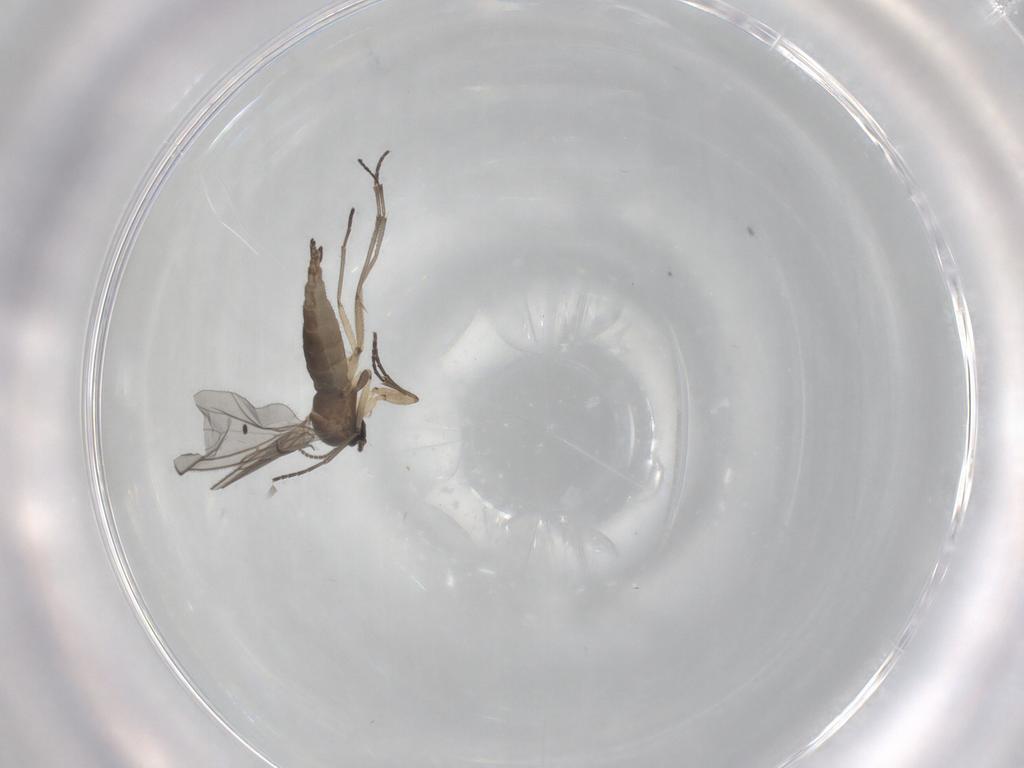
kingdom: Animalia
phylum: Arthropoda
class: Insecta
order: Diptera
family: Sciaridae
